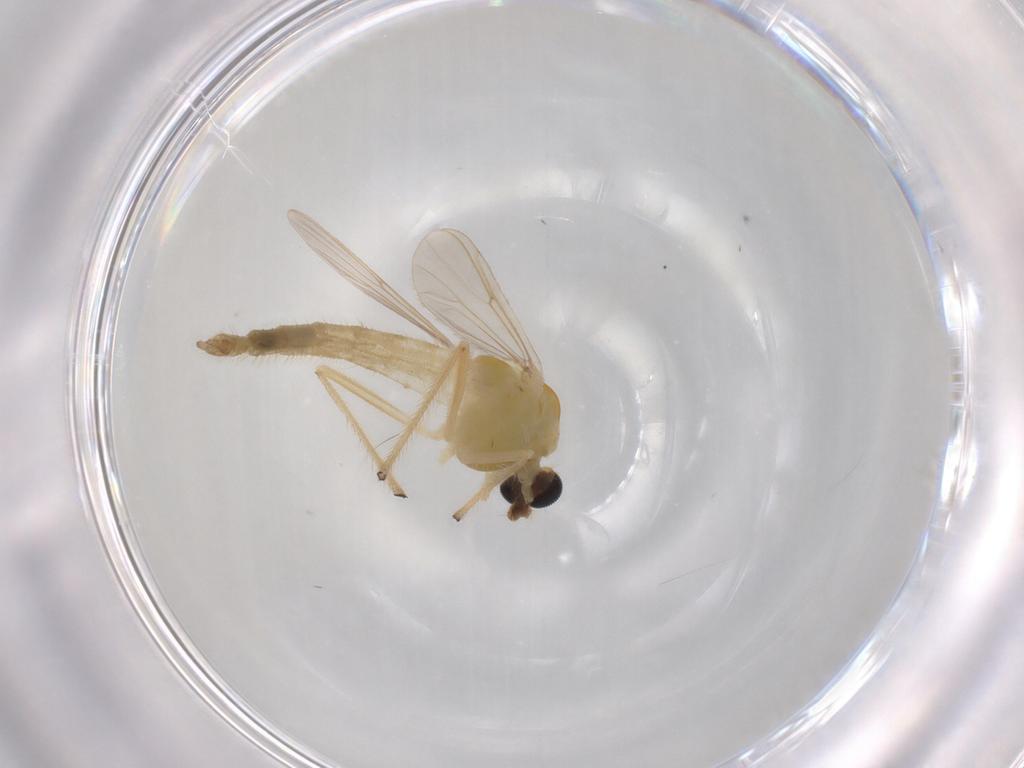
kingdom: Animalia
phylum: Arthropoda
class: Insecta
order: Diptera
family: Chironomidae
